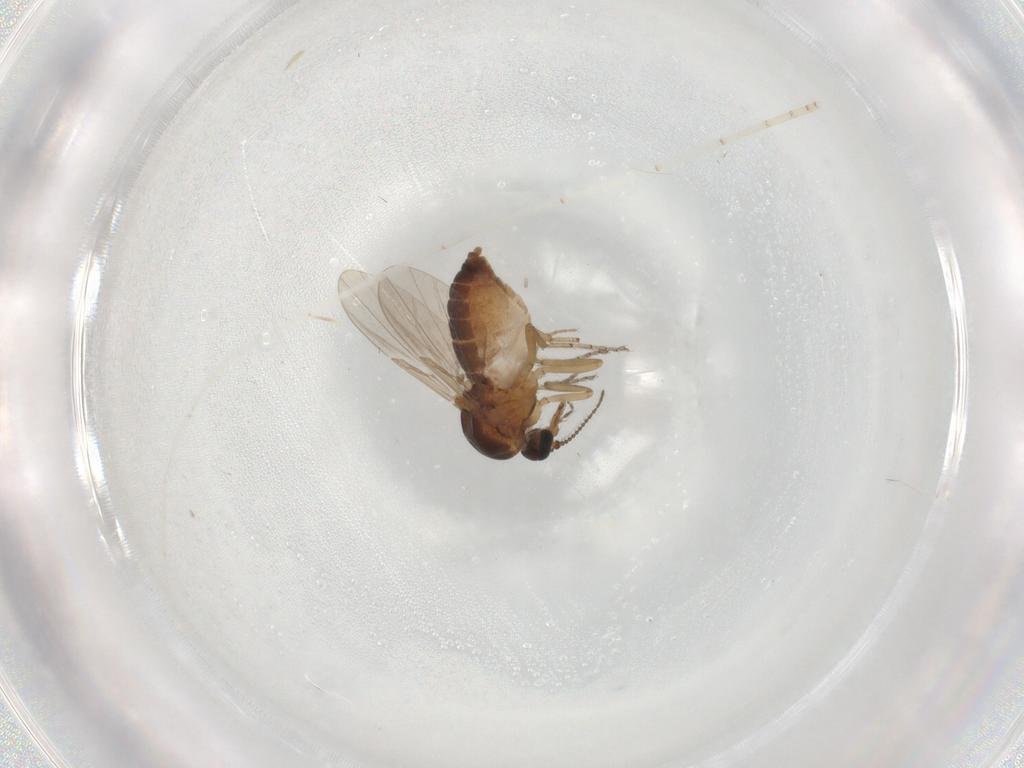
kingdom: Animalia
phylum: Arthropoda
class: Insecta
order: Diptera
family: Ceratopogonidae
